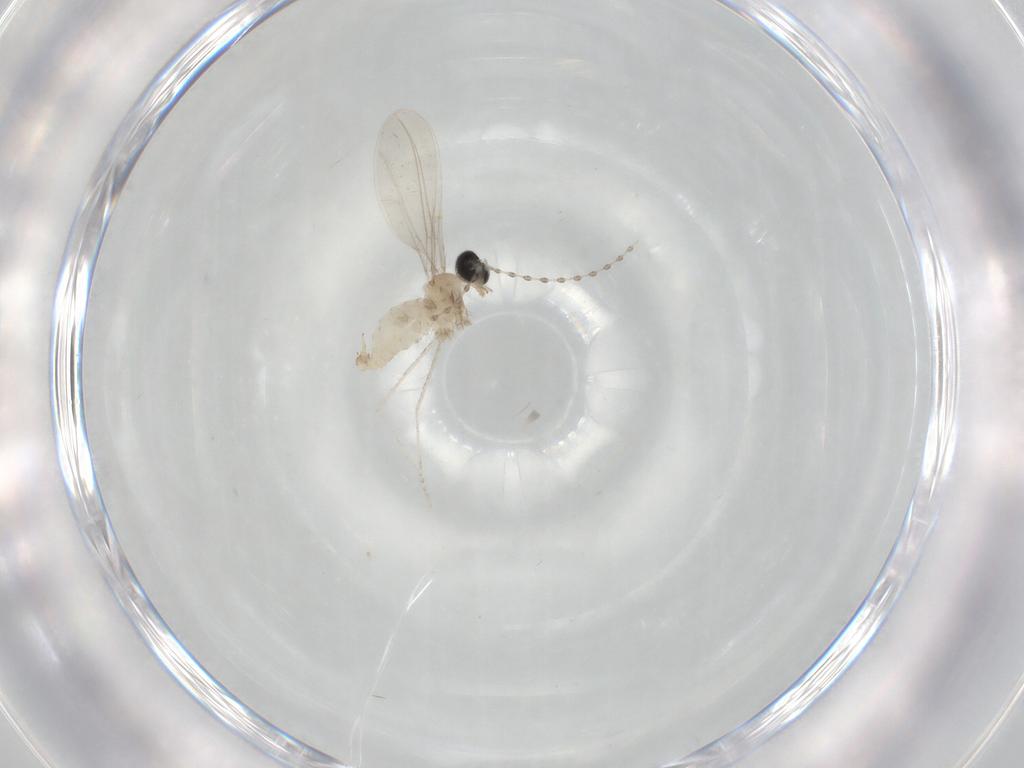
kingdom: Animalia
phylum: Arthropoda
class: Insecta
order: Diptera
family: Cecidomyiidae
